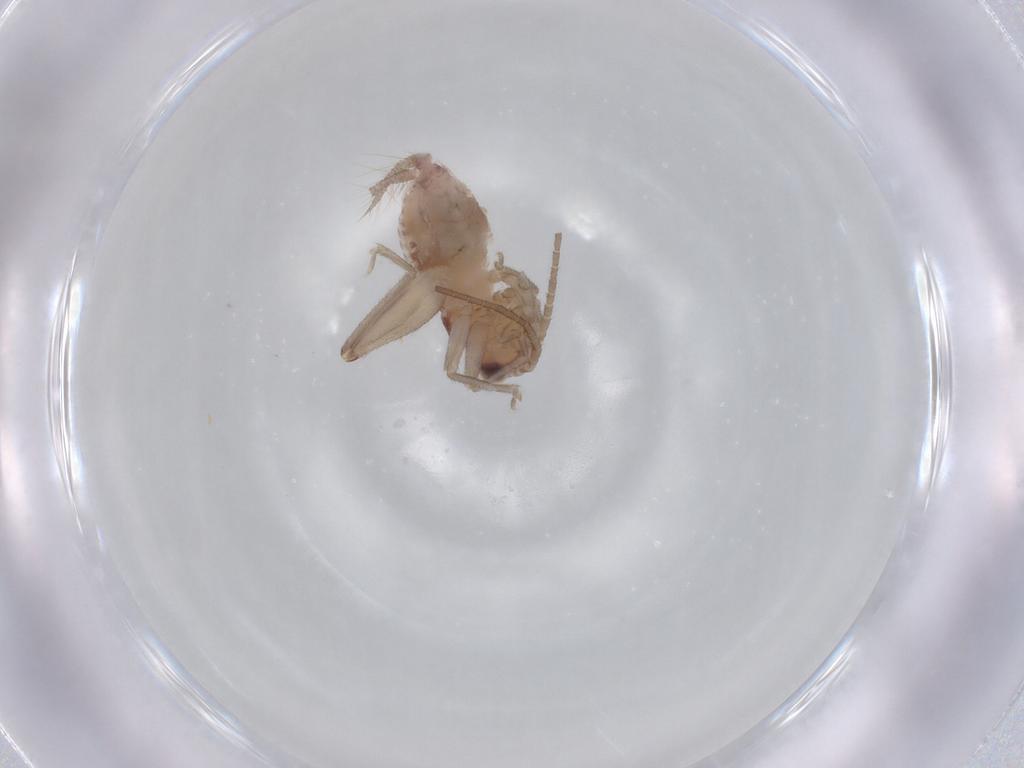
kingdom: Animalia
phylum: Arthropoda
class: Insecta
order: Orthoptera
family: Trigonidiidae
